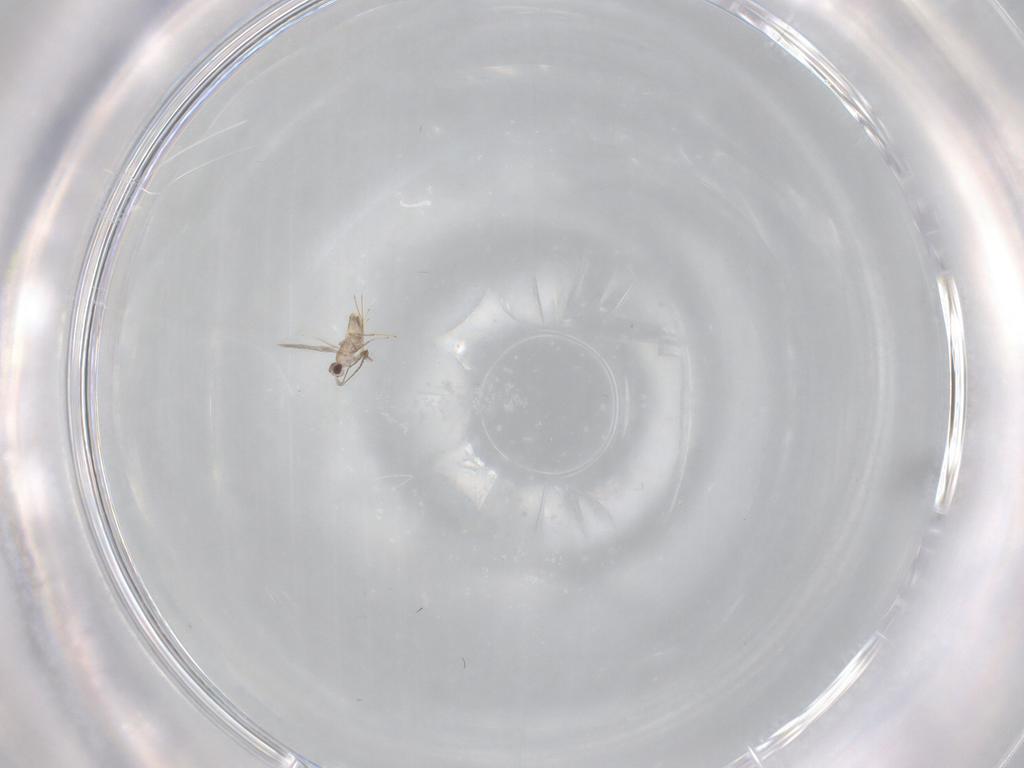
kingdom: Animalia
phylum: Arthropoda
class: Insecta
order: Hymenoptera
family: Mymaridae
